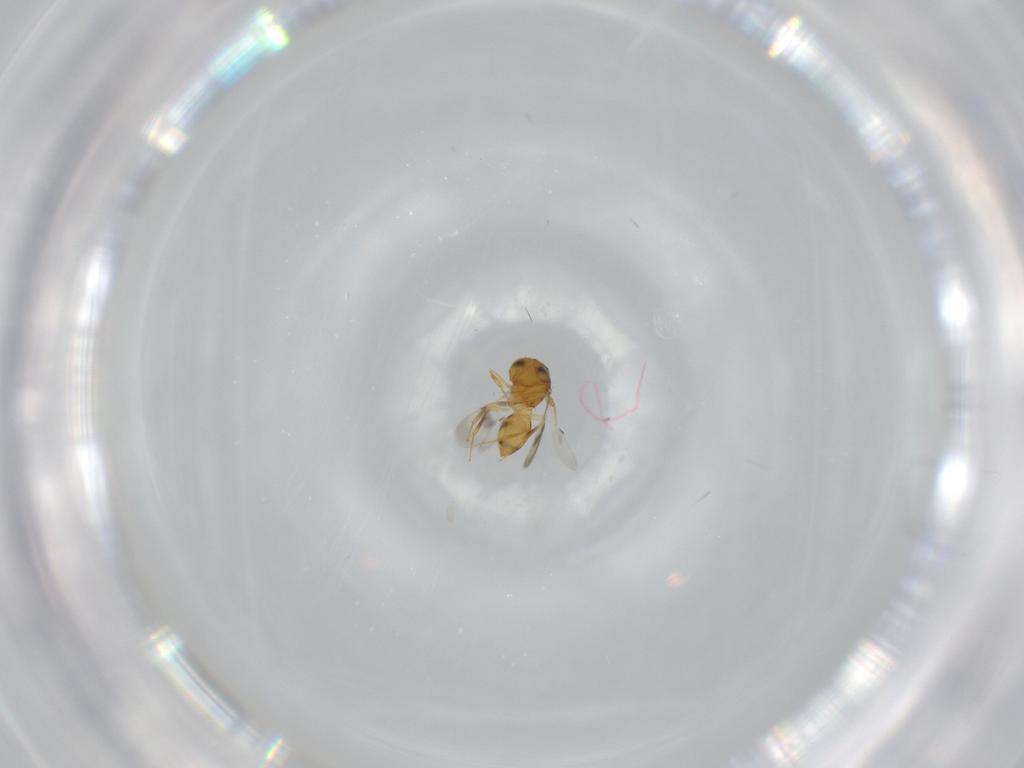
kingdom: Animalia
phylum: Arthropoda
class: Insecta
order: Hymenoptera
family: Scelionidae
